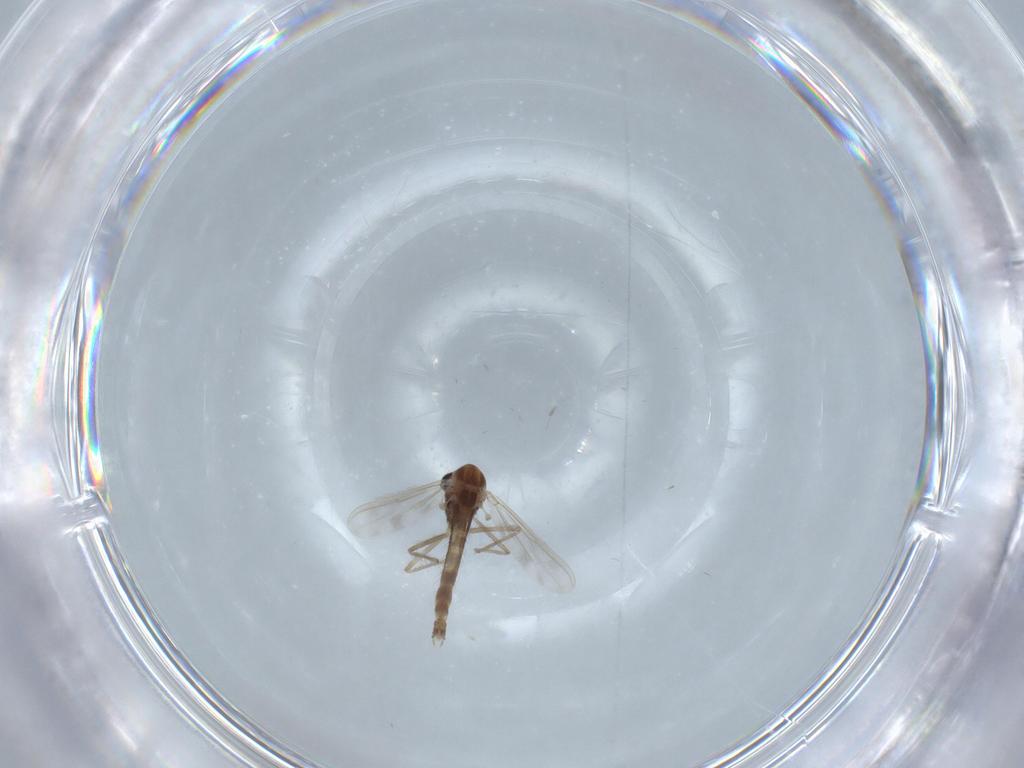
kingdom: Animalia
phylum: Arthropoda
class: Insecta
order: Diptera
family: Chironomidae
